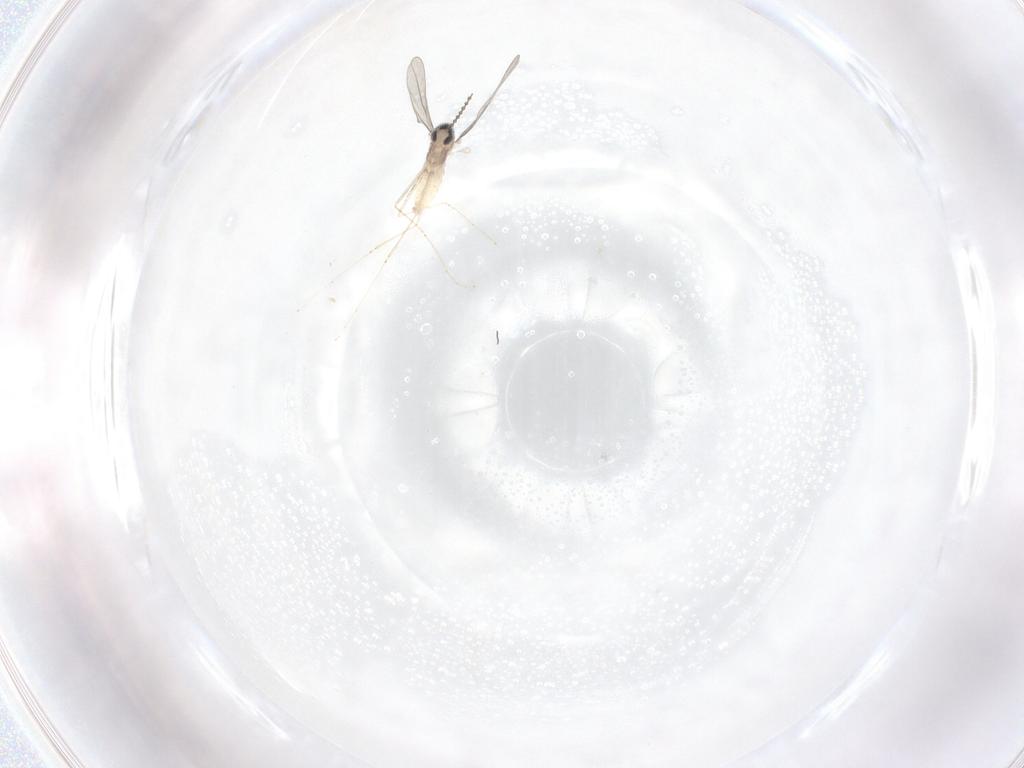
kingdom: Animalia
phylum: Arthropoda
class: Insecta
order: Diptera
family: Cecidomyiidae
